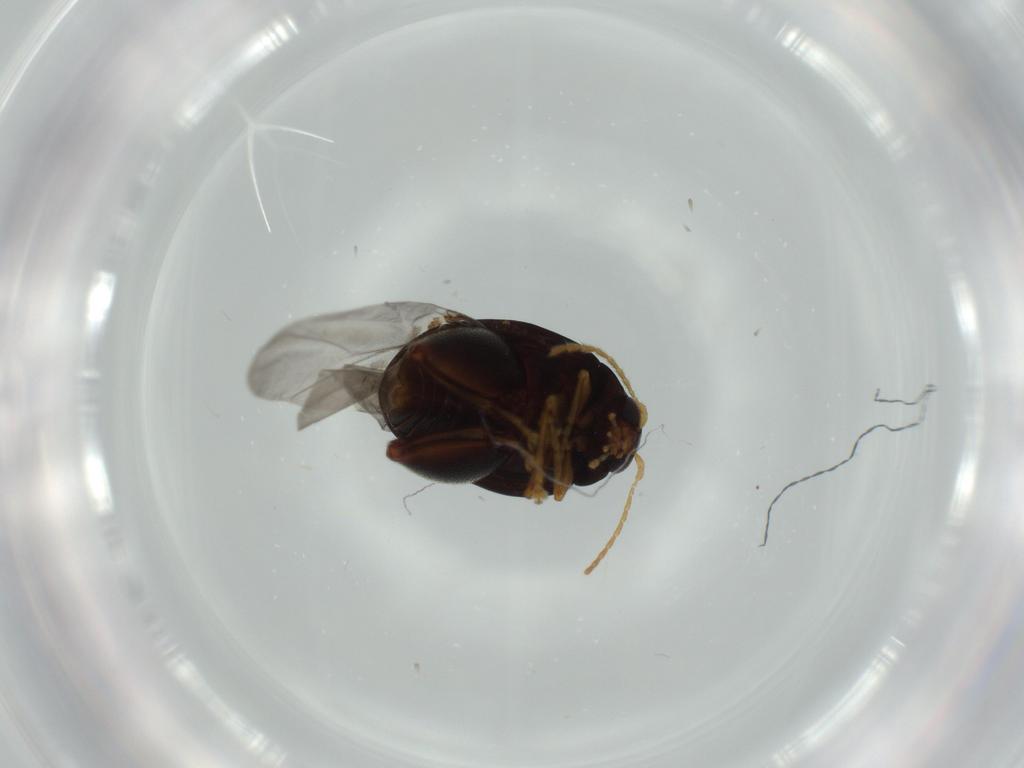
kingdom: Animalia
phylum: Arthropoda
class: Insecta
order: Coleoptera
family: Chrysomelidae
